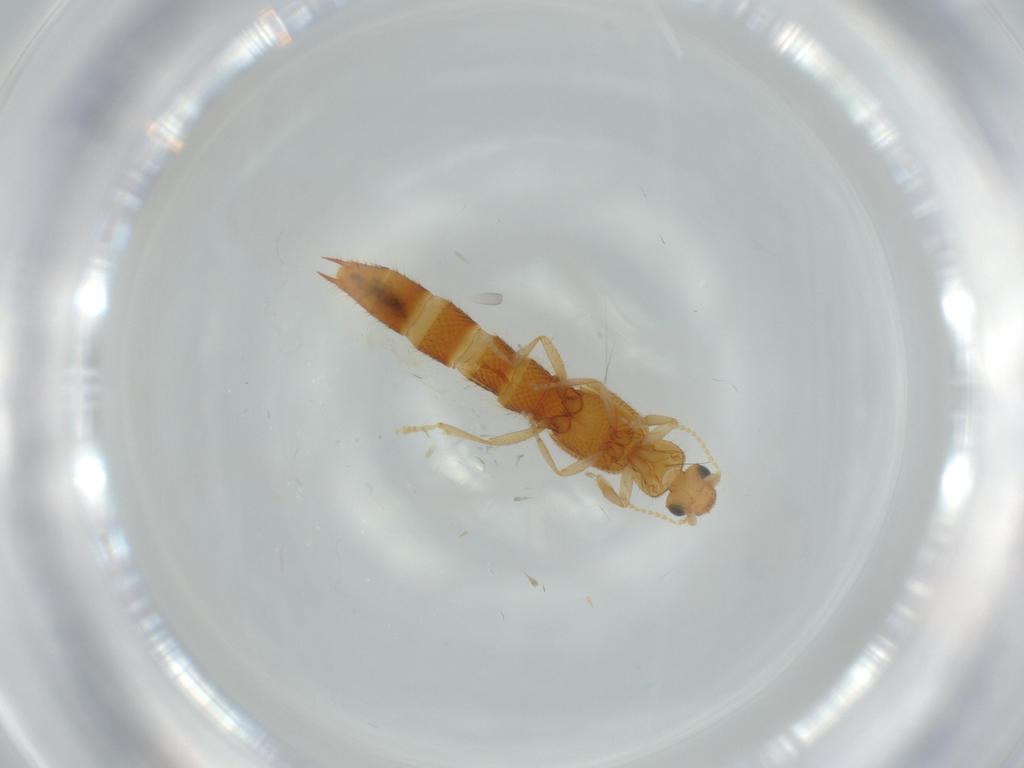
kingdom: Animalia
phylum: Arthropoda
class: Insecta
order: Coleoptera
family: Staphylinidae
